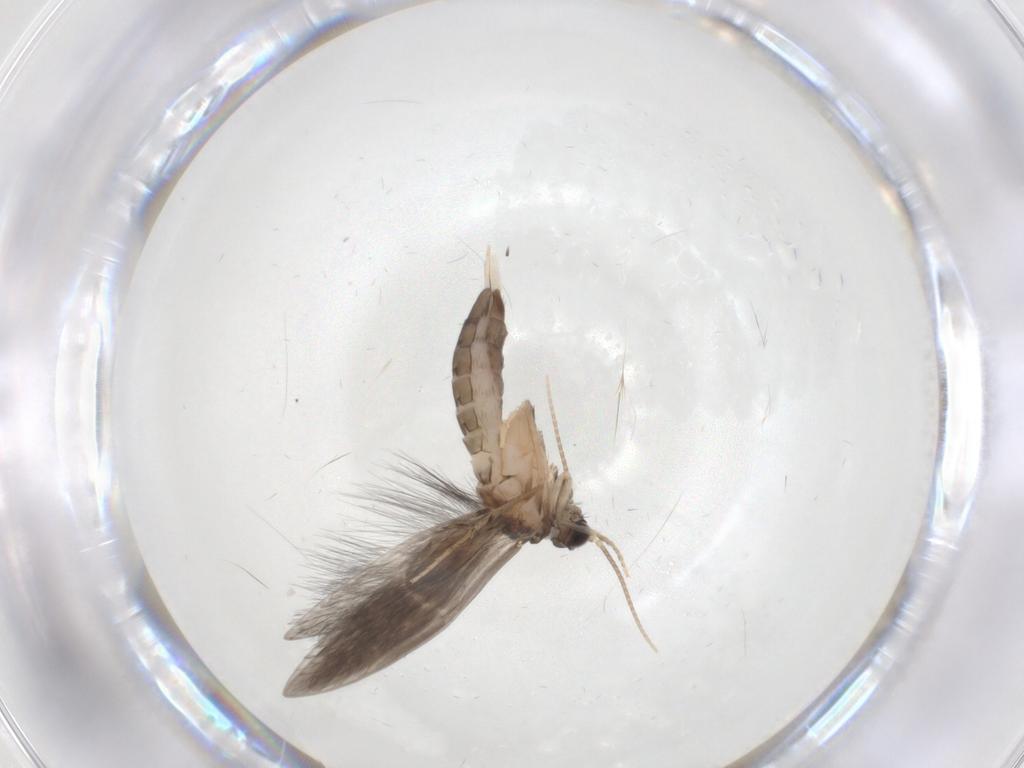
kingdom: Animalia
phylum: Arthropoda
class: Insecta
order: Trichoptera
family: Hydroptilidae
